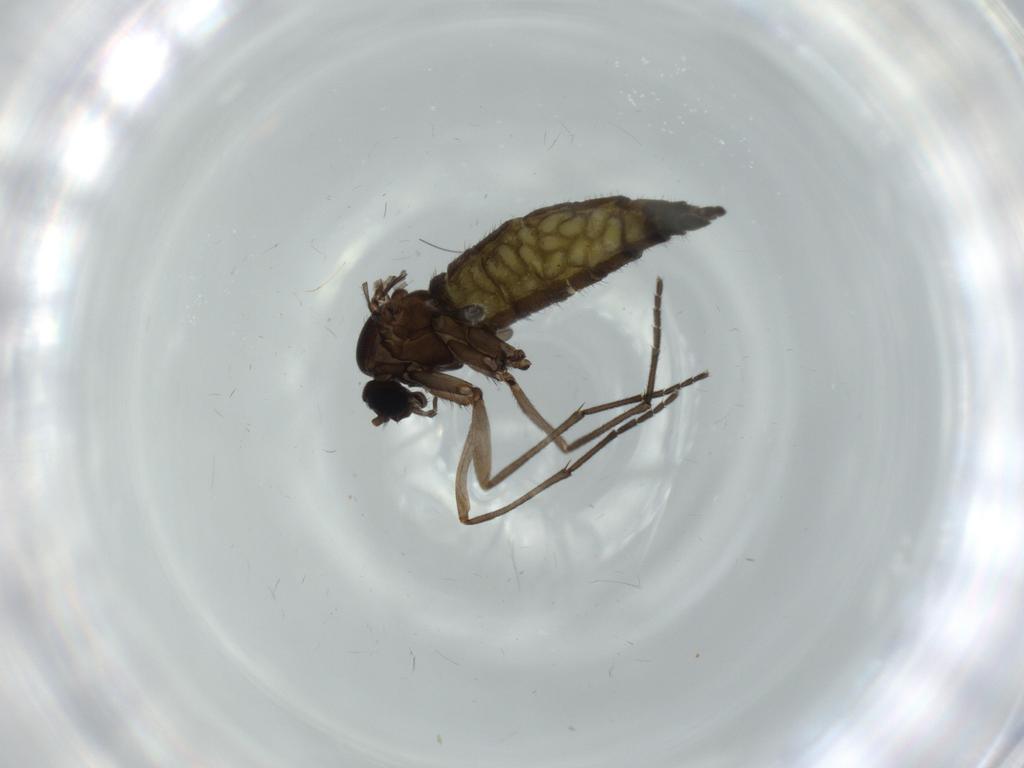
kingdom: Animalia
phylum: Arthropoda
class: Insecta
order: Diptera
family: Sciaridae
